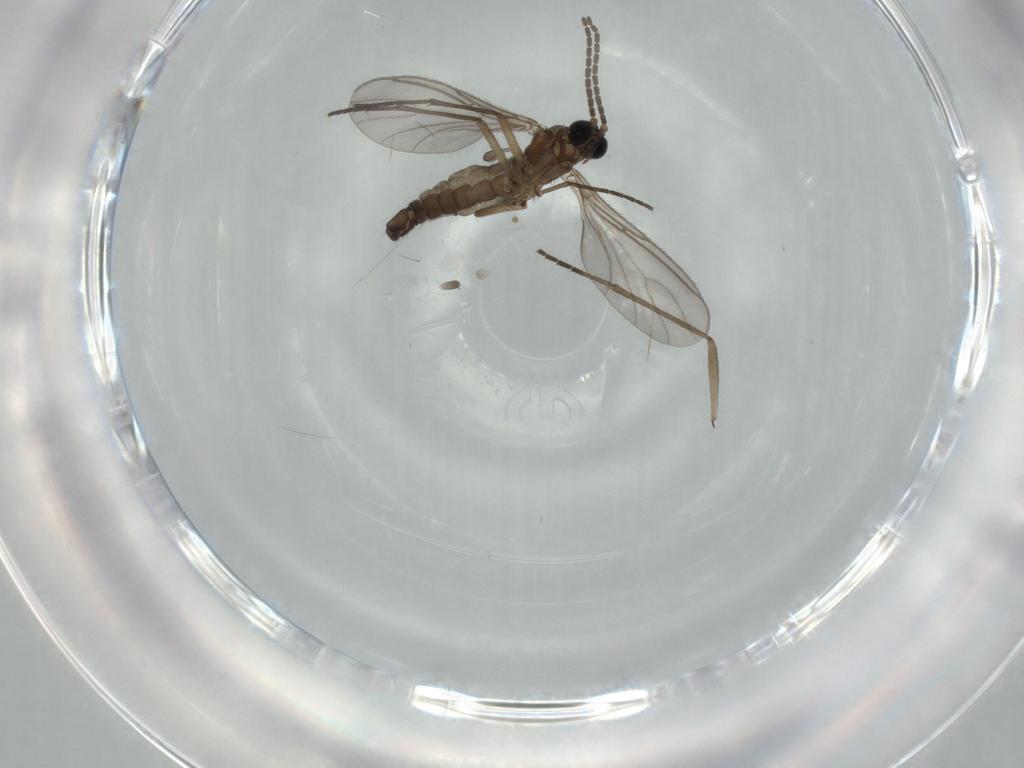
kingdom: Animalia
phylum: Arthropoda
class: Insecta
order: Diptera
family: Sciaridae
